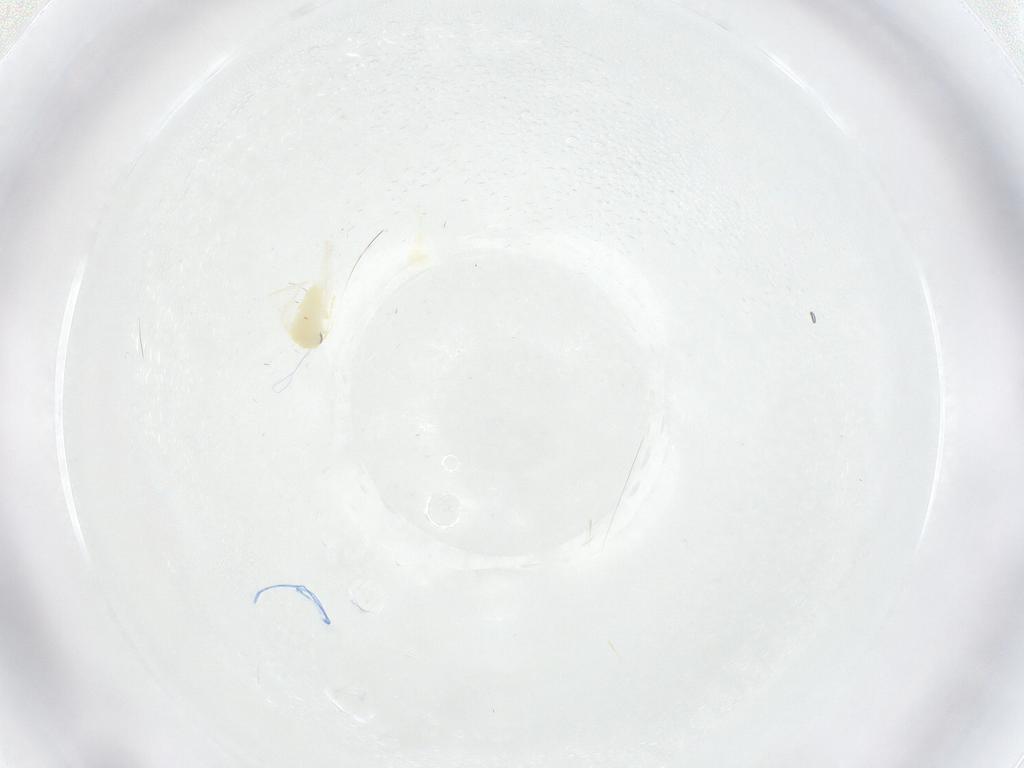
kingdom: Animalia
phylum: Arthropoda
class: Insecta
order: Hemiptera
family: Aleyrodidae
